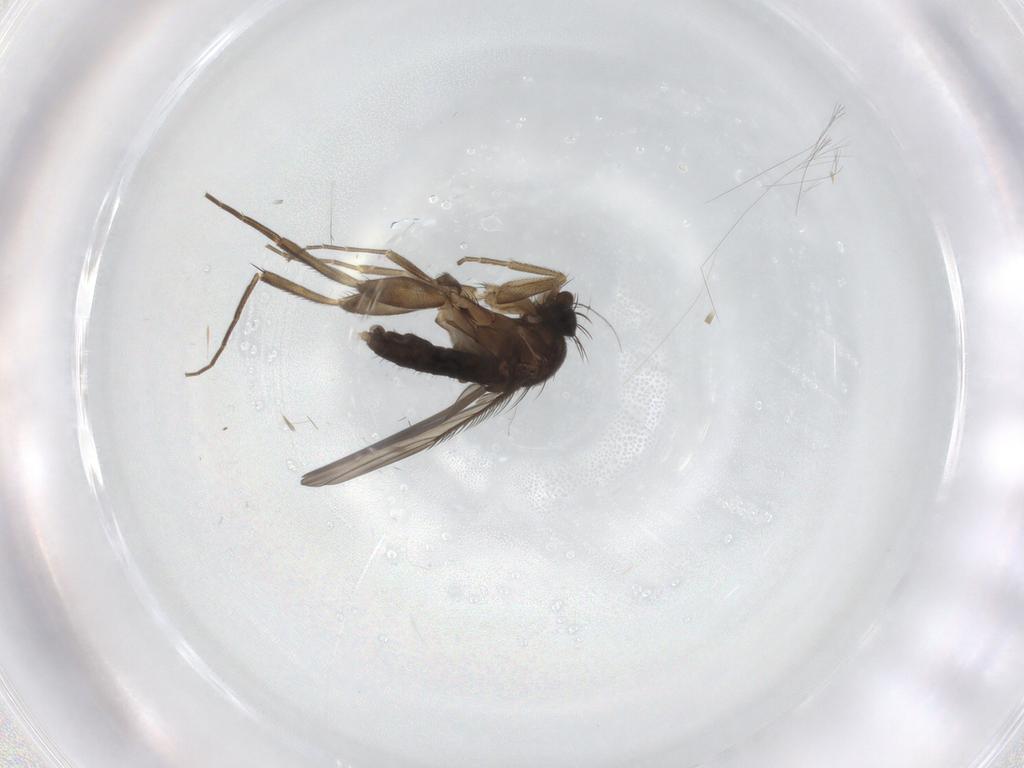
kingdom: Animalia
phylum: Arthropoda
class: Insecta
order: Diptera
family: Phoridae
